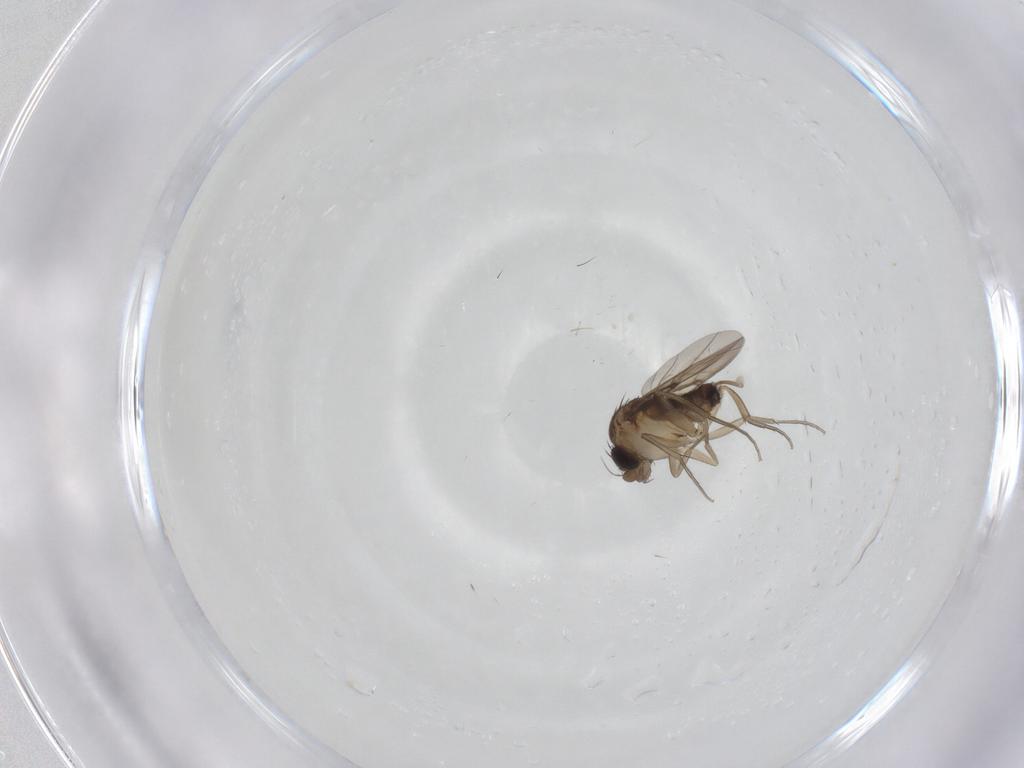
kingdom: Animalia
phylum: Arthropoda
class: Insecta
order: Diptera
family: Phoridae
